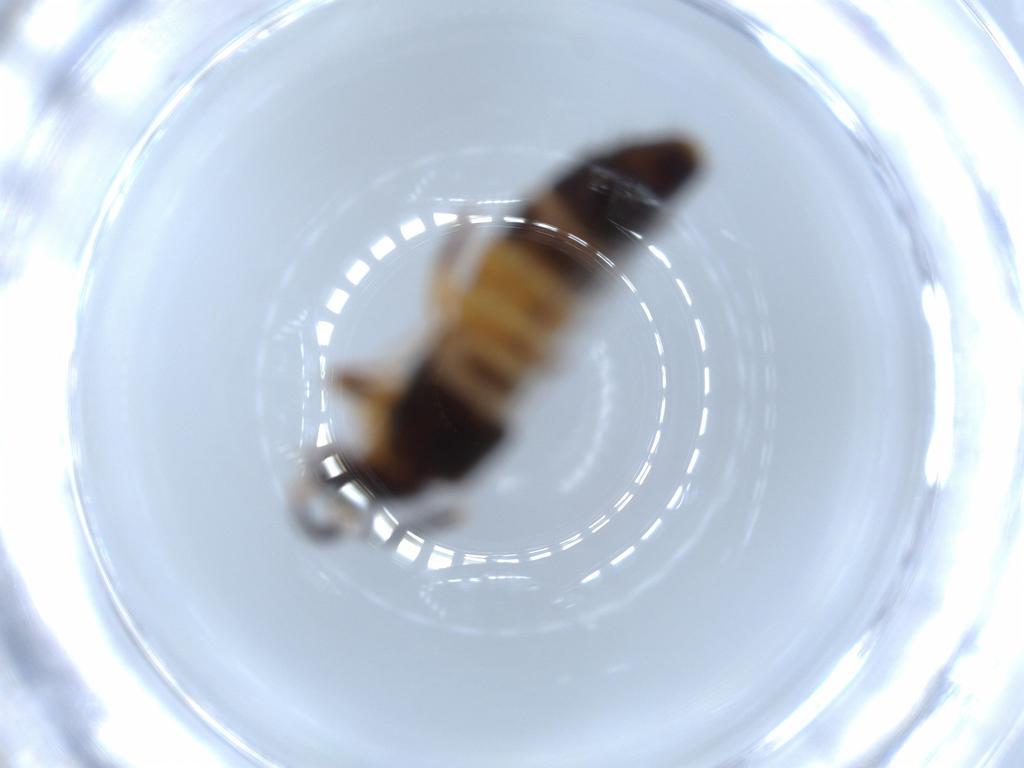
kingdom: Animalia
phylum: Arthropoda
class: Insecta
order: Coleoptera
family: Staphylinidae
